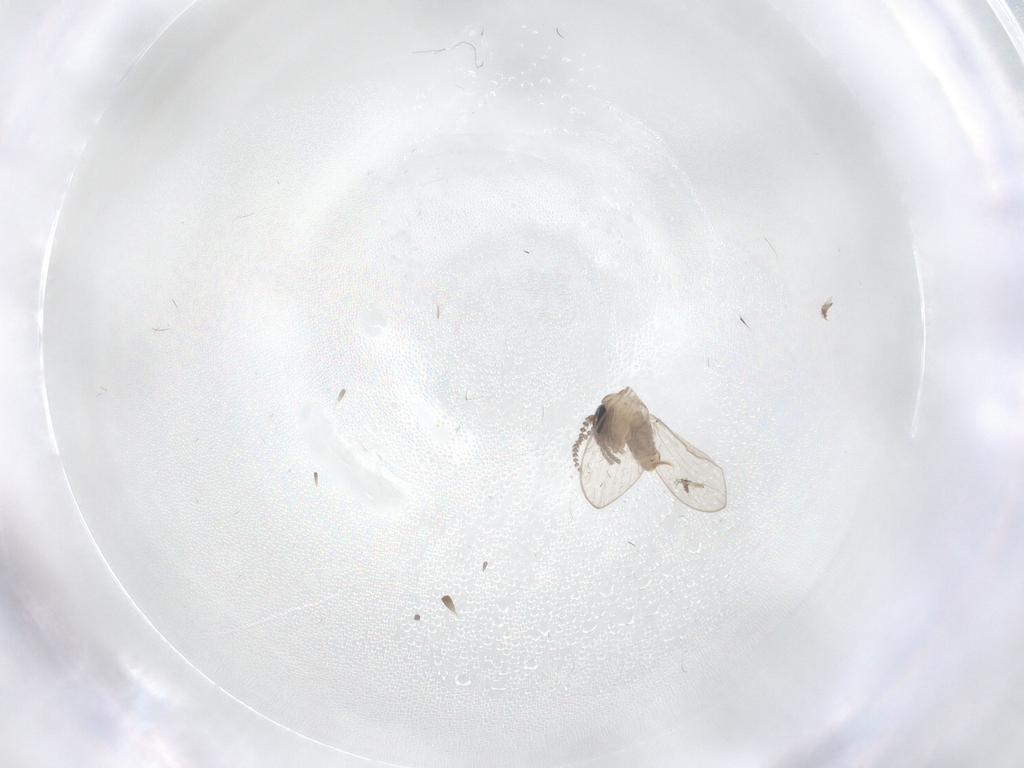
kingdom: Animalia
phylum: Arthropoda
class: Insecta
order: Diptera
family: Psychodidae
